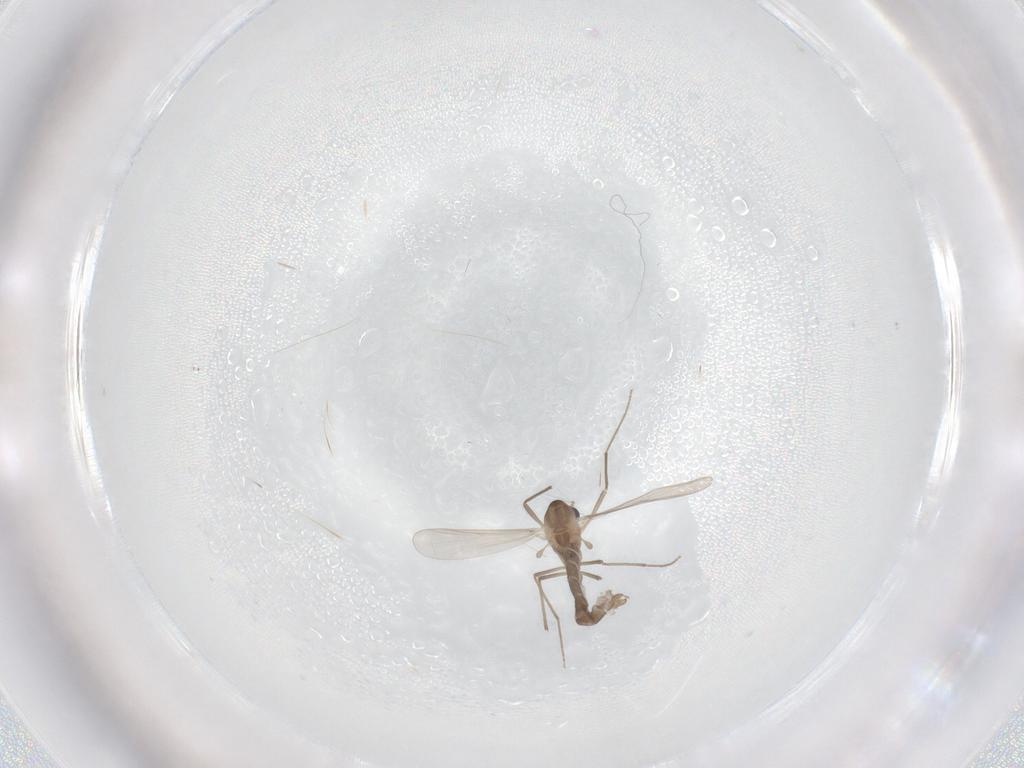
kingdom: Animalia
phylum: Arthropoda
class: Insecta
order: Diptera
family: Chironomidae
